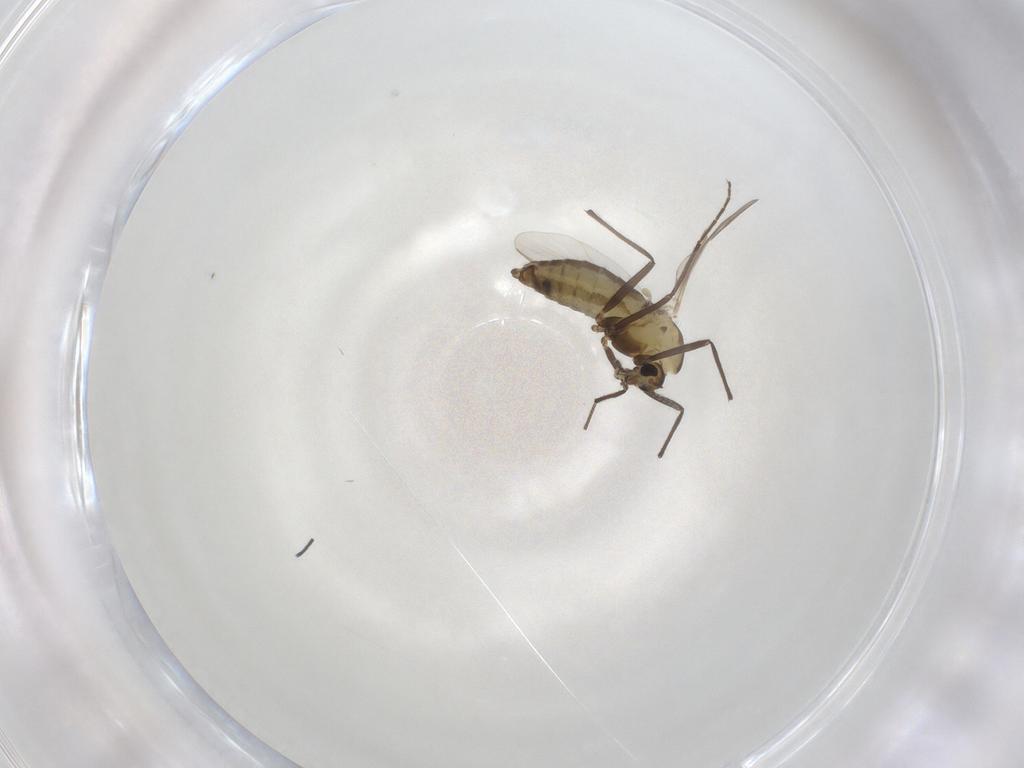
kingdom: Animalia
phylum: Arthropoda
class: Insecta
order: Diptera
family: Chironomidae
